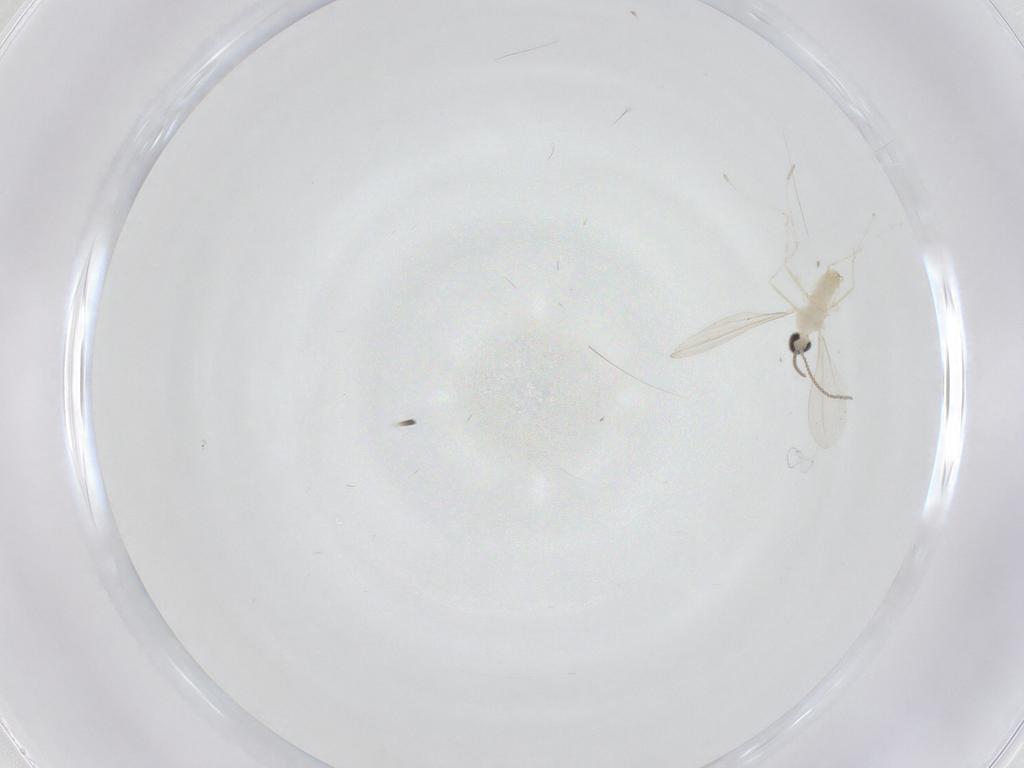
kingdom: Animalia
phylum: Arthropoda
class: Insecta
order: Diptera
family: Cecidomyiidae
